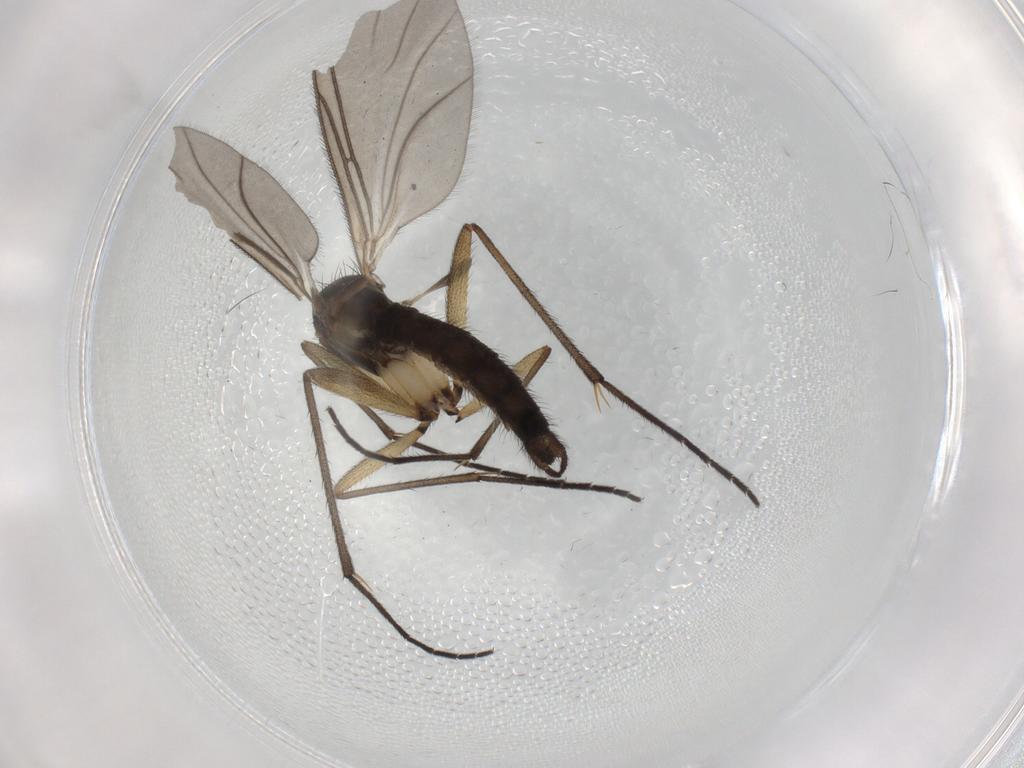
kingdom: Animalia
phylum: Arthropoda
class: Insecta
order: Diptera
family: Sciaridae
